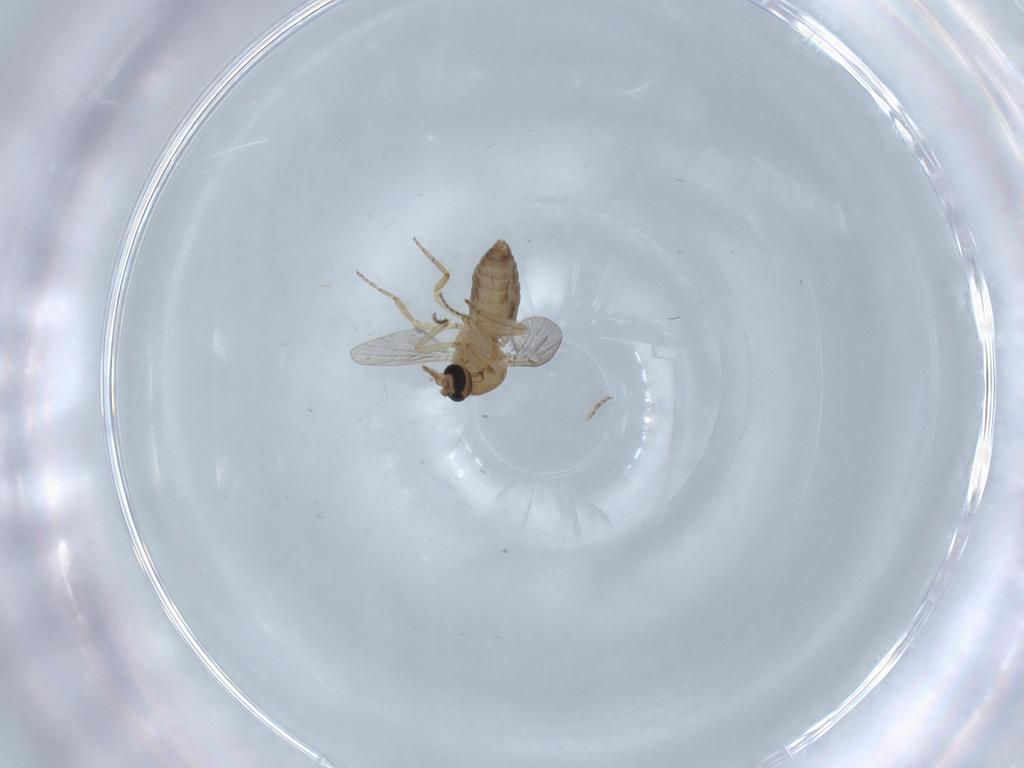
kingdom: Animalia
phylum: Arthropoda
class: Insecta
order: Diptera
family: Ceratopogonidae
